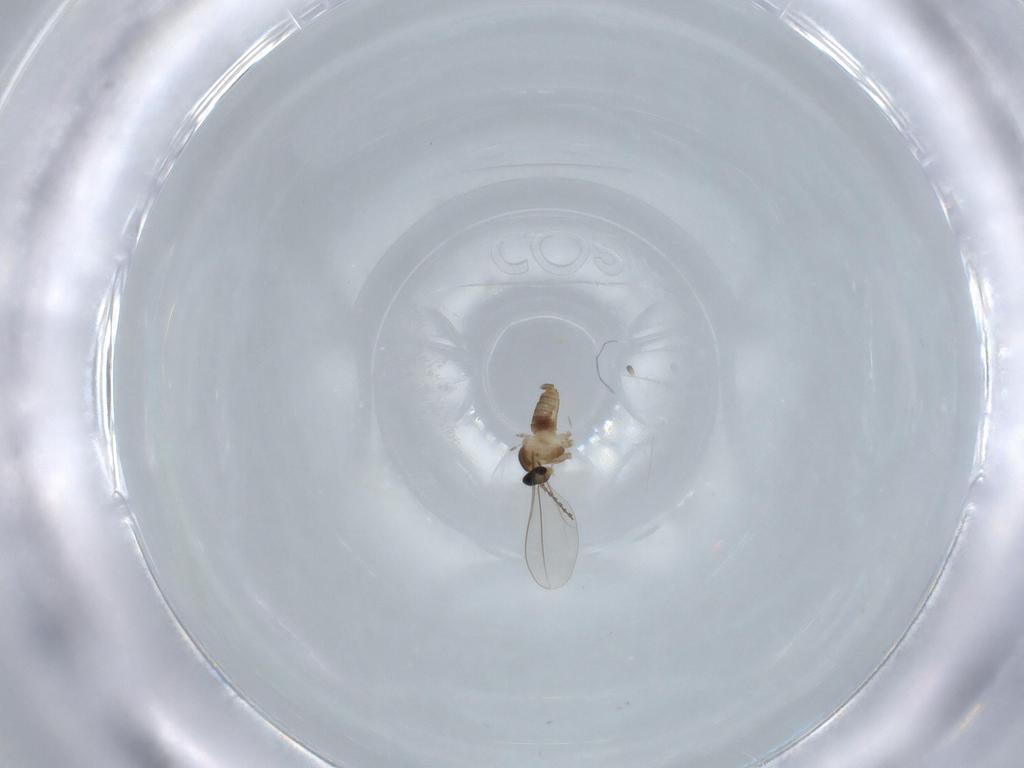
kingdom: Animalia
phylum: Arthropoda
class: Insecta
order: Diptera
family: Cecidomyiidae
